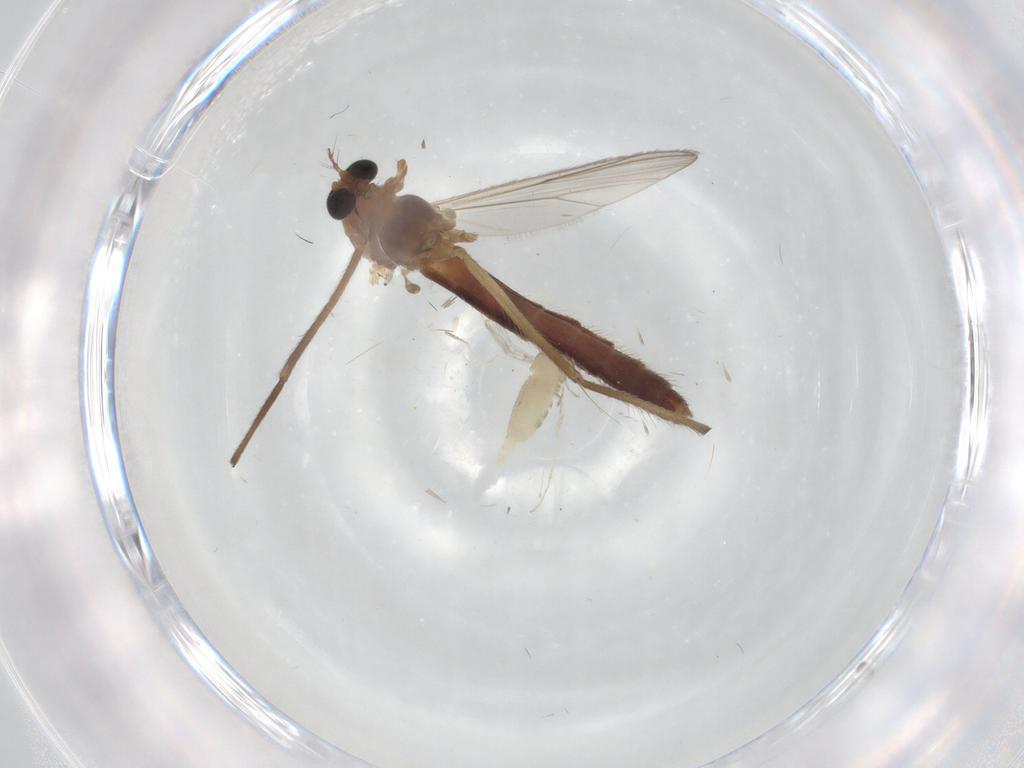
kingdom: Animalia
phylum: Arthropoda
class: Insecta
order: Diptera
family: Chironomidae
